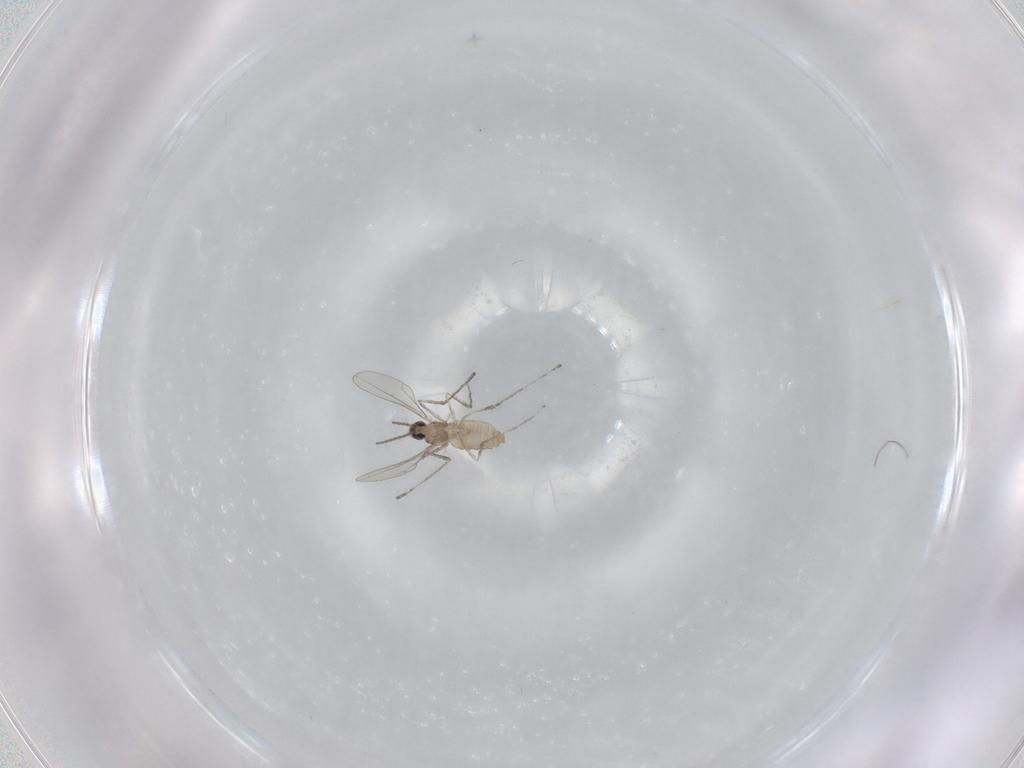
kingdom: Animalia
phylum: Arthropoda
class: Insecta
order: Diptera
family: Cecidomyiidae
